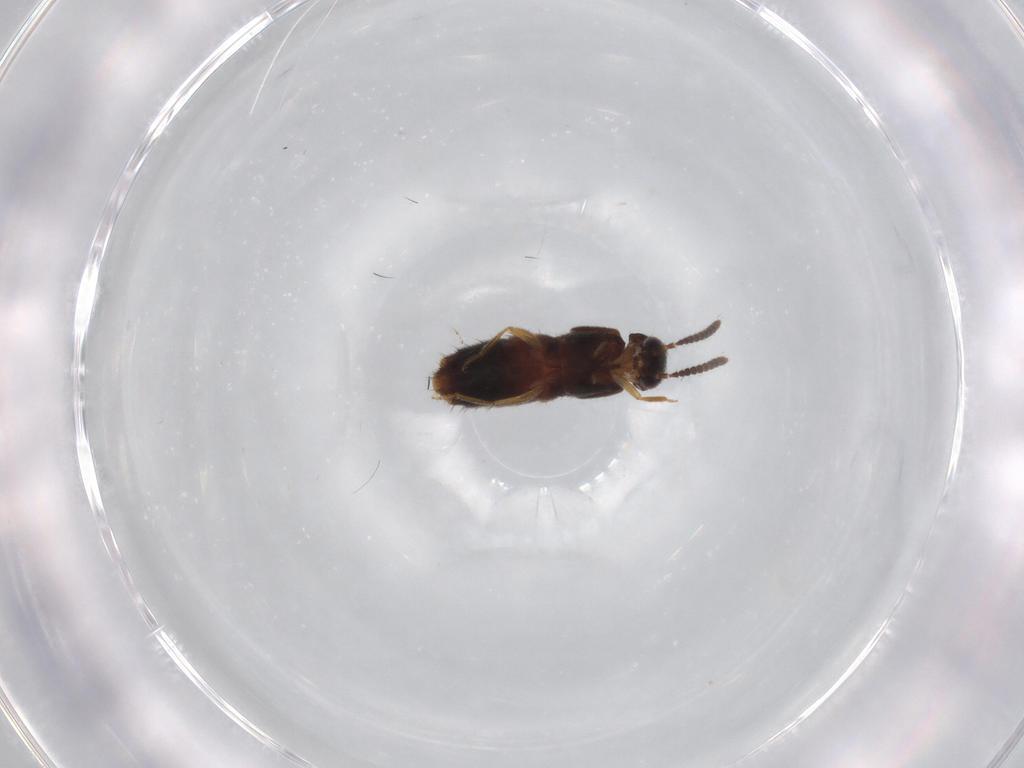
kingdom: Animalia
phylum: Arthropoda
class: Insecta
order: Coleoptera
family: Staphylinidae
